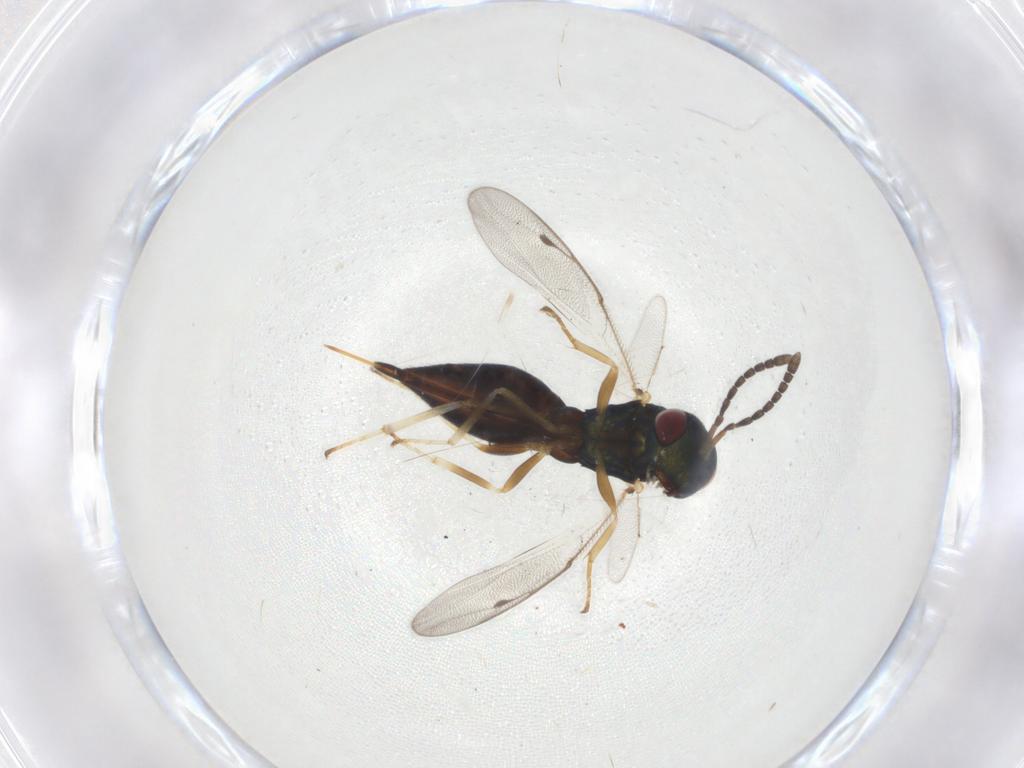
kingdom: Animalia
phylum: Arthropoda
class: Insecta
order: Hymenoptera
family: Pteromalidae
